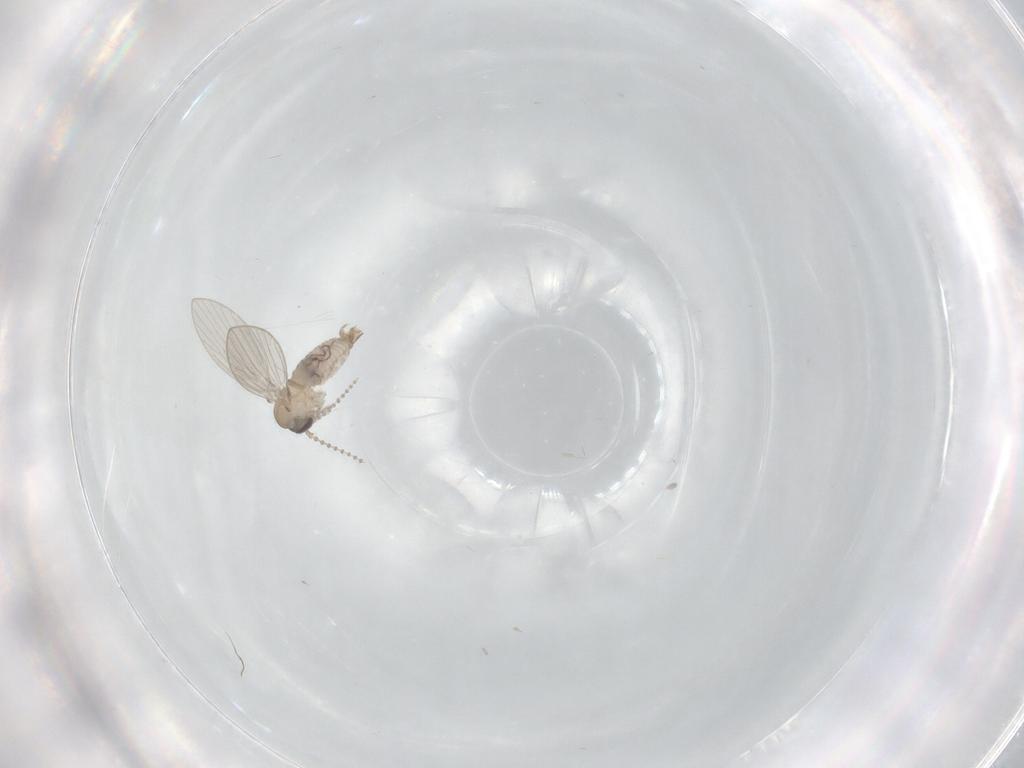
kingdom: Animalia
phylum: Arthropoda
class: Insecta
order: Diptera
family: Psychodidae
